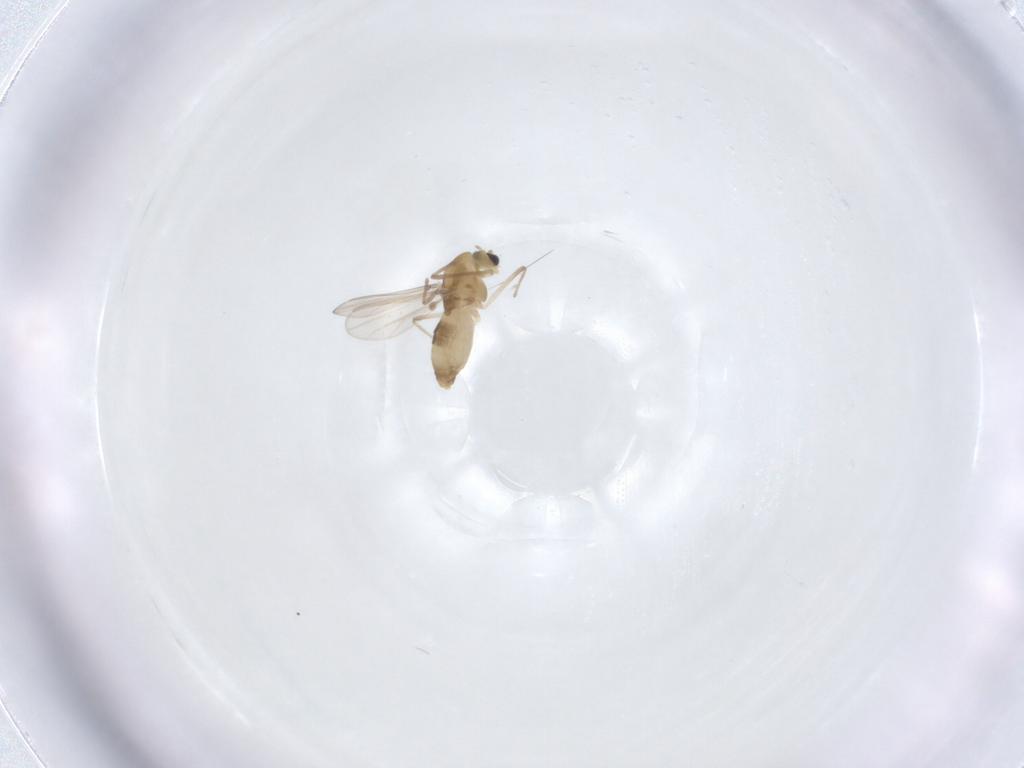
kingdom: Animalia
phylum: Arthropoda
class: Insecta
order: Diptera
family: Chironomidae
